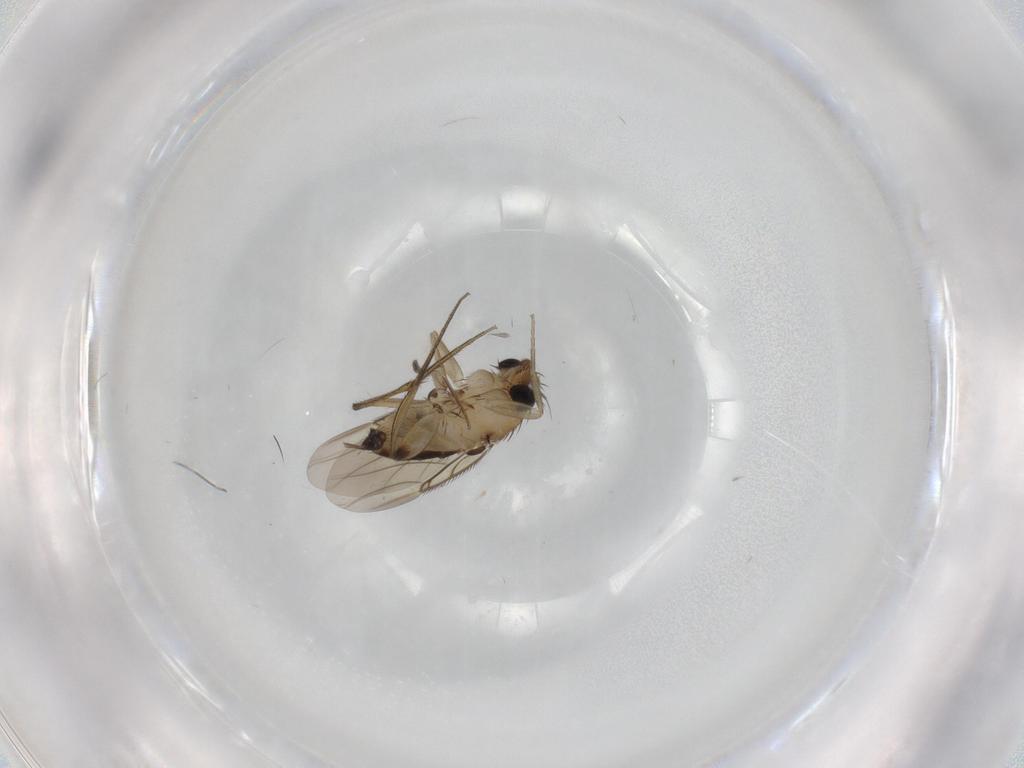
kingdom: Animalia
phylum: Arthropoda
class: Insecta
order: Diptera
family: Phoridae
